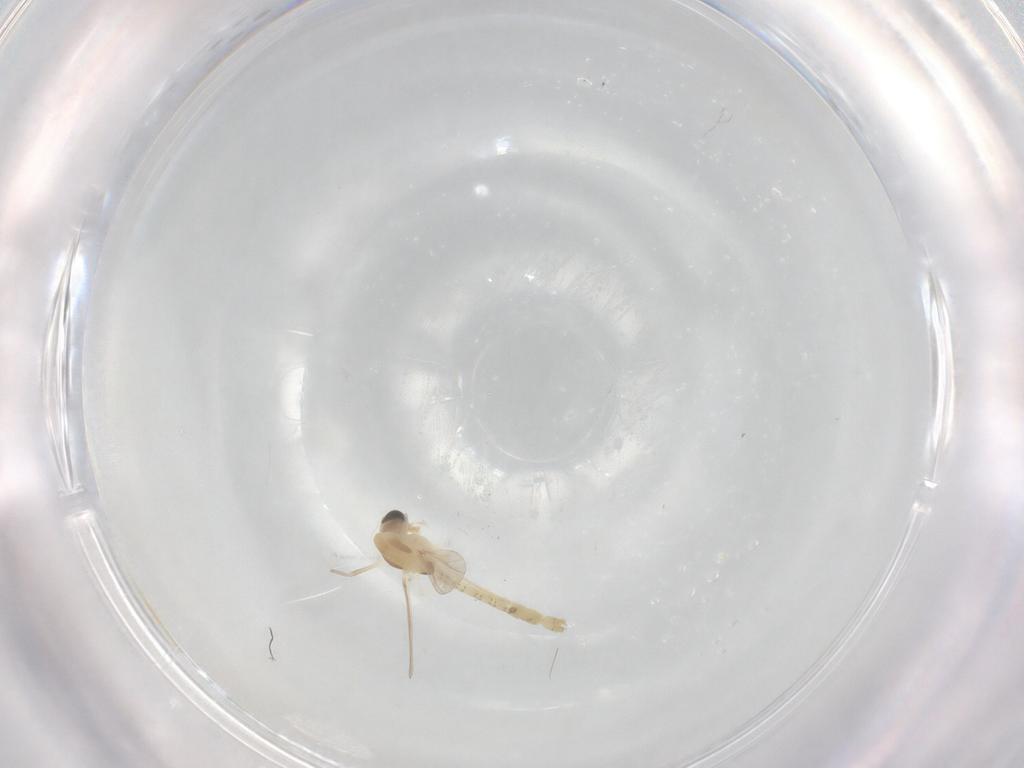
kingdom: Animalia
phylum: Arthropoda
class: Insecta
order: Diptera
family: Chironomidae
